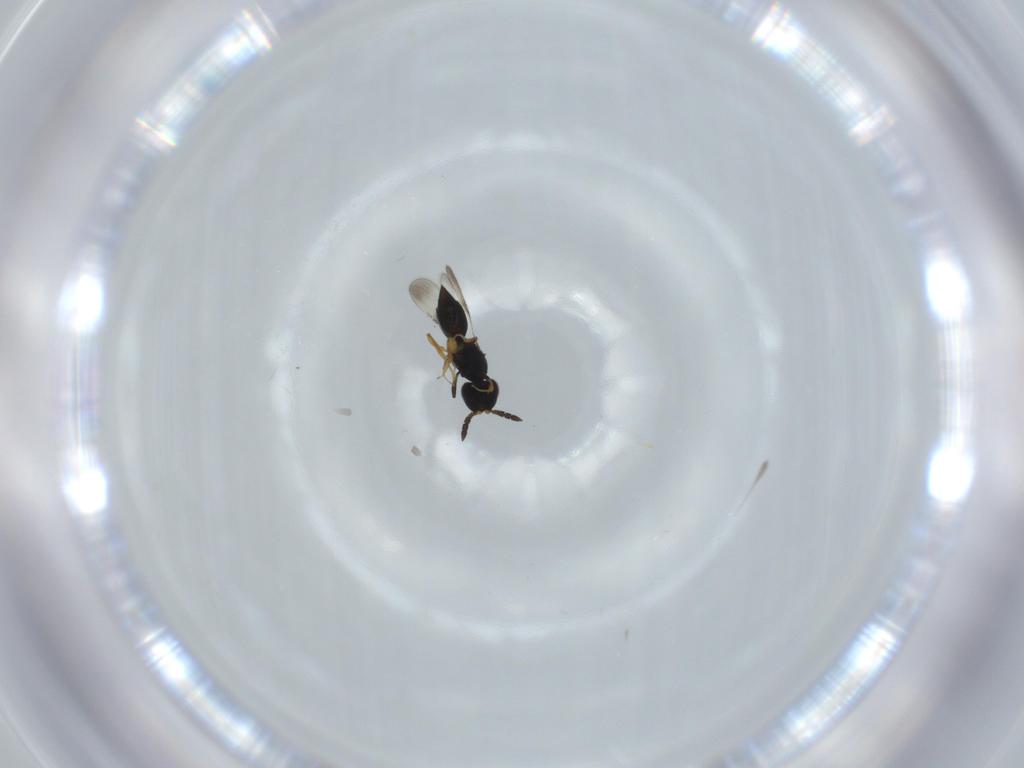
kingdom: Animalia
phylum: Arthropoda
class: Insecta
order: Hymenoptera
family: Ceraphronidae
